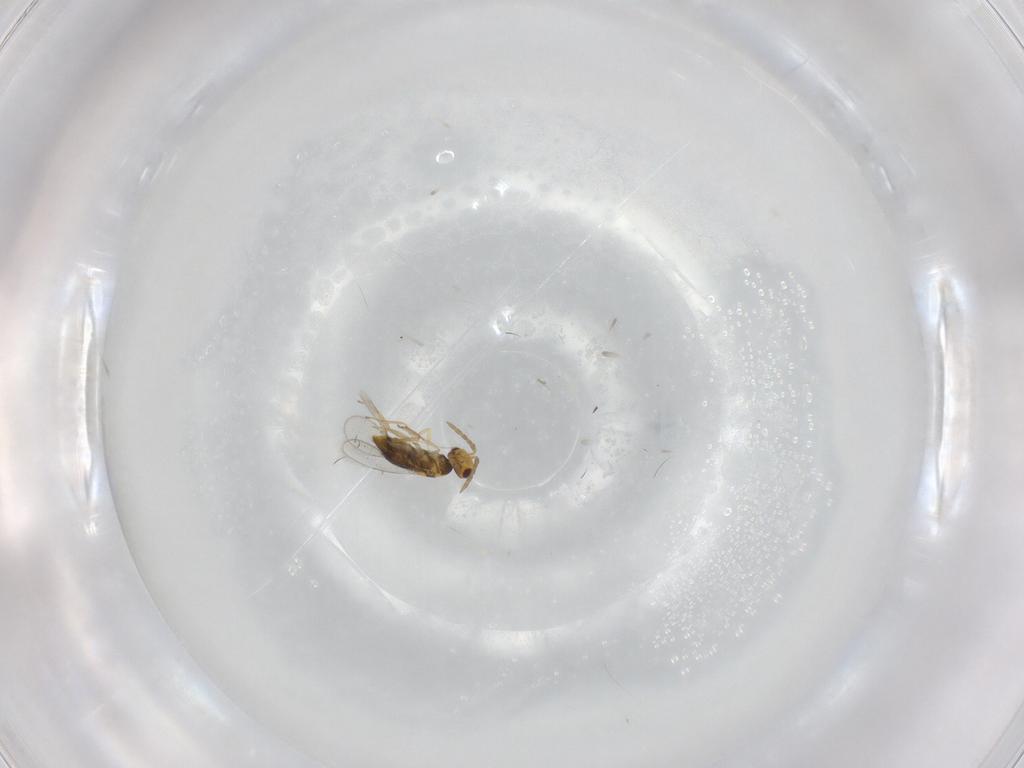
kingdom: Animalia
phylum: Arthropoda
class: Insecta
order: Hymenoptera
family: Aphelinidae
